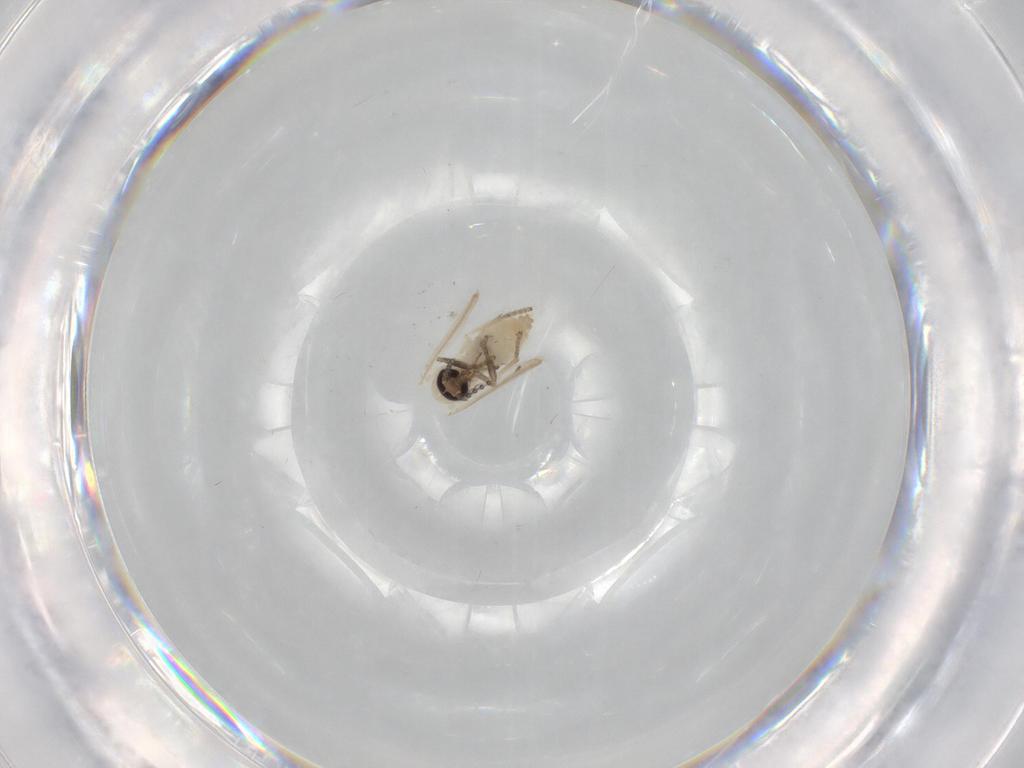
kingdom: Animalia
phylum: Arthropoda
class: Insecta
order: Diptera
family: Psychodidae
